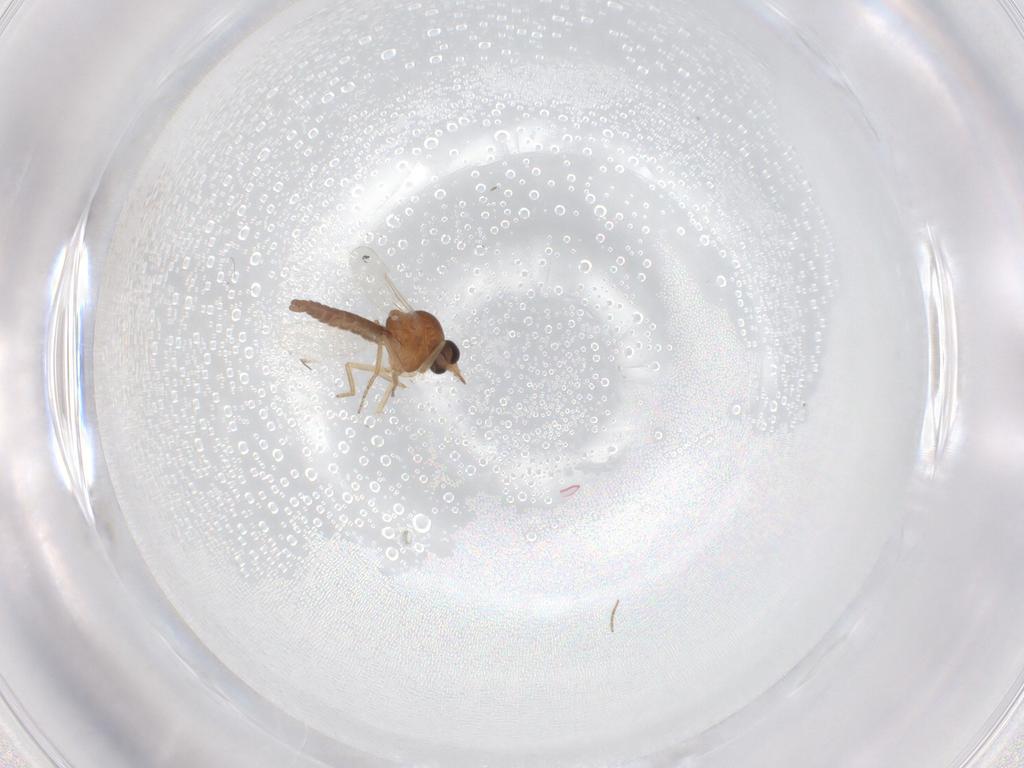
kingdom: Animalia
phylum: Arthropoda
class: Insecta
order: Diptera
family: Ceratopogonidae
